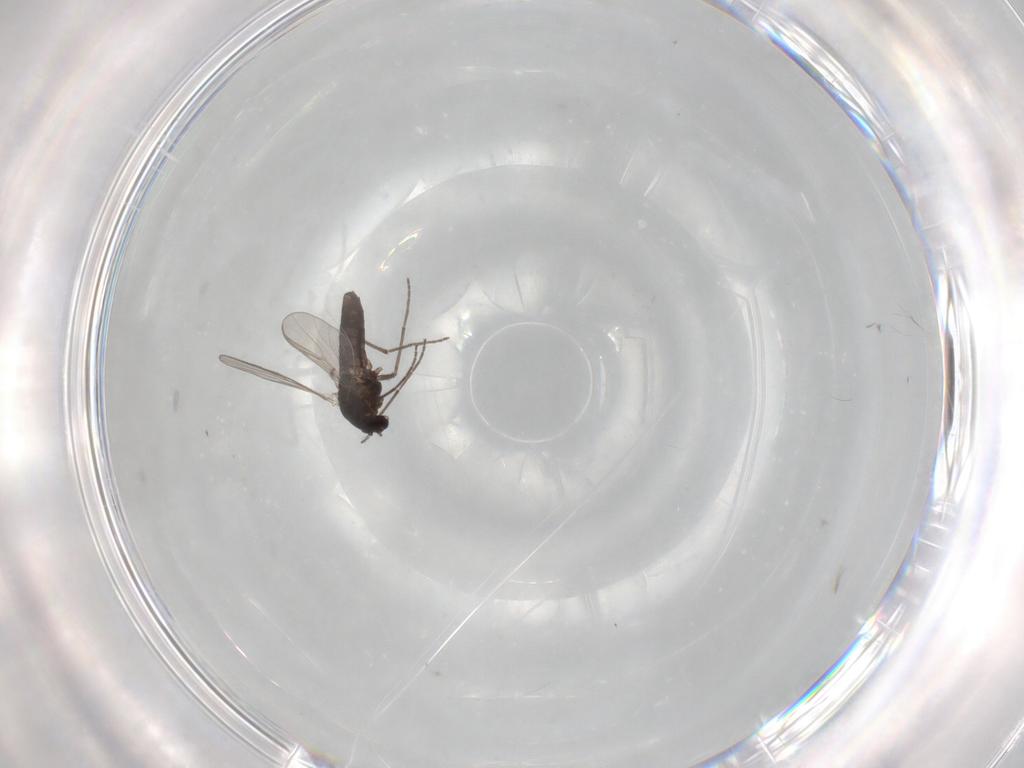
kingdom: Animalia
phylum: Arthropoda
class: Insecta
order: Diptera
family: Chironomidae
